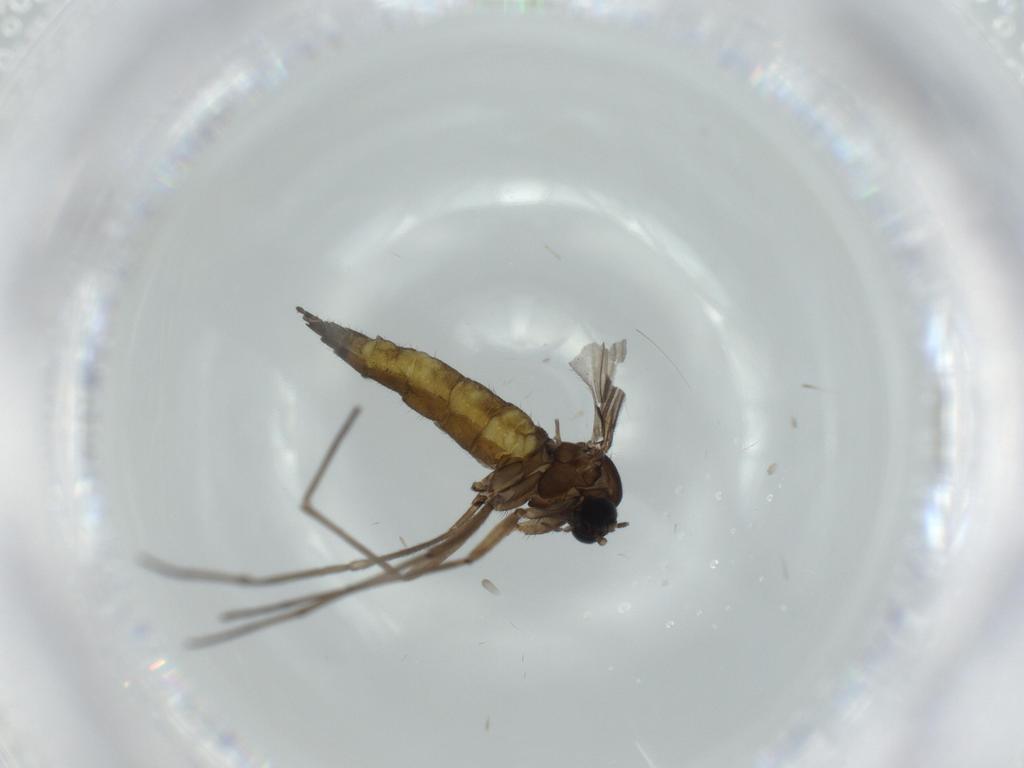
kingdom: Animalia
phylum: Arthropoda
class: Insecta
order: Diptera
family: Sciaridae
